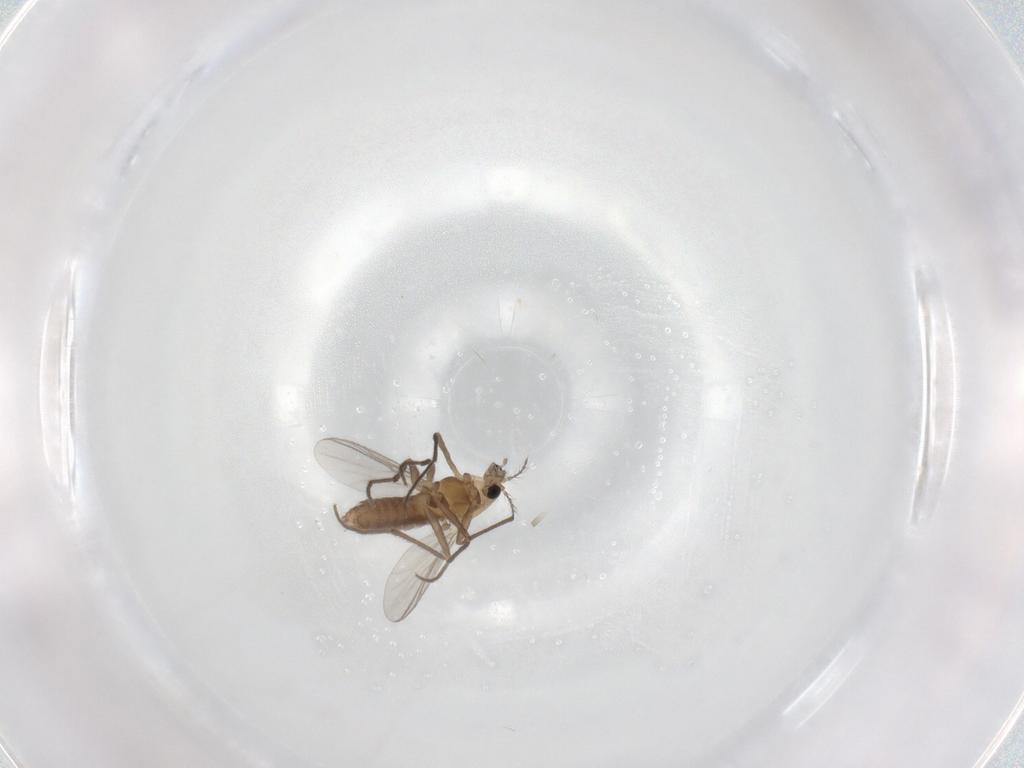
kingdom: Animalia
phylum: Arthropoda
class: Insecta
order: Diptera
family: Chironomidae
